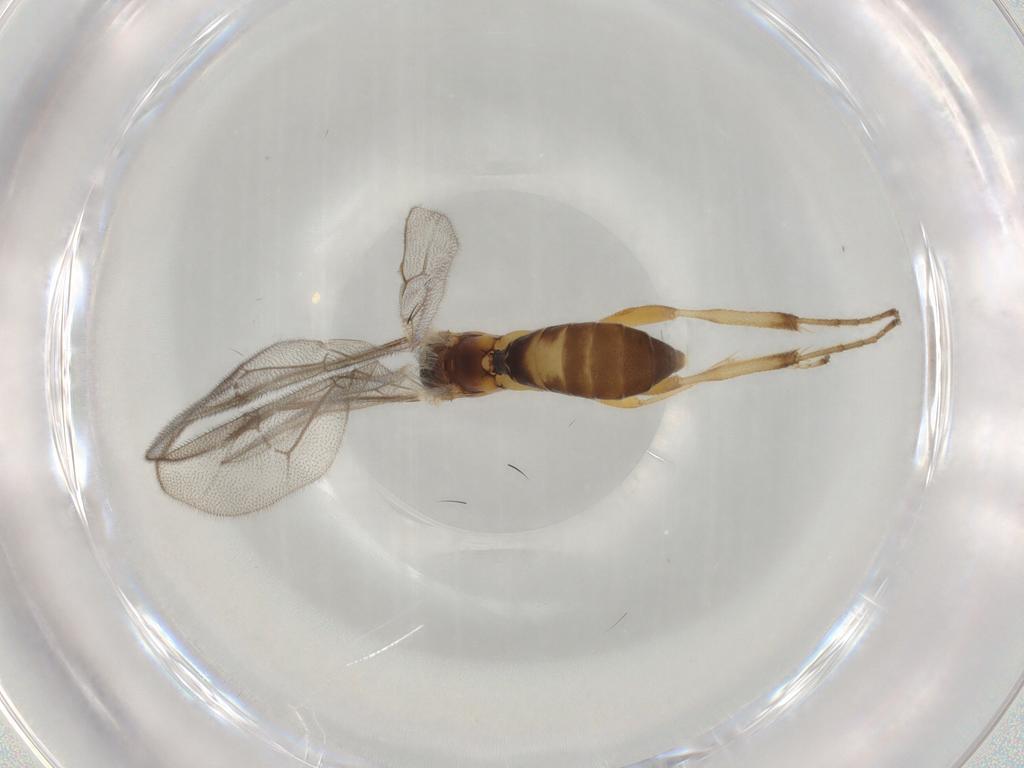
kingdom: Animalia
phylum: Arthropoda
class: Insecta
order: Hymenoptera
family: Ichneumonidae
